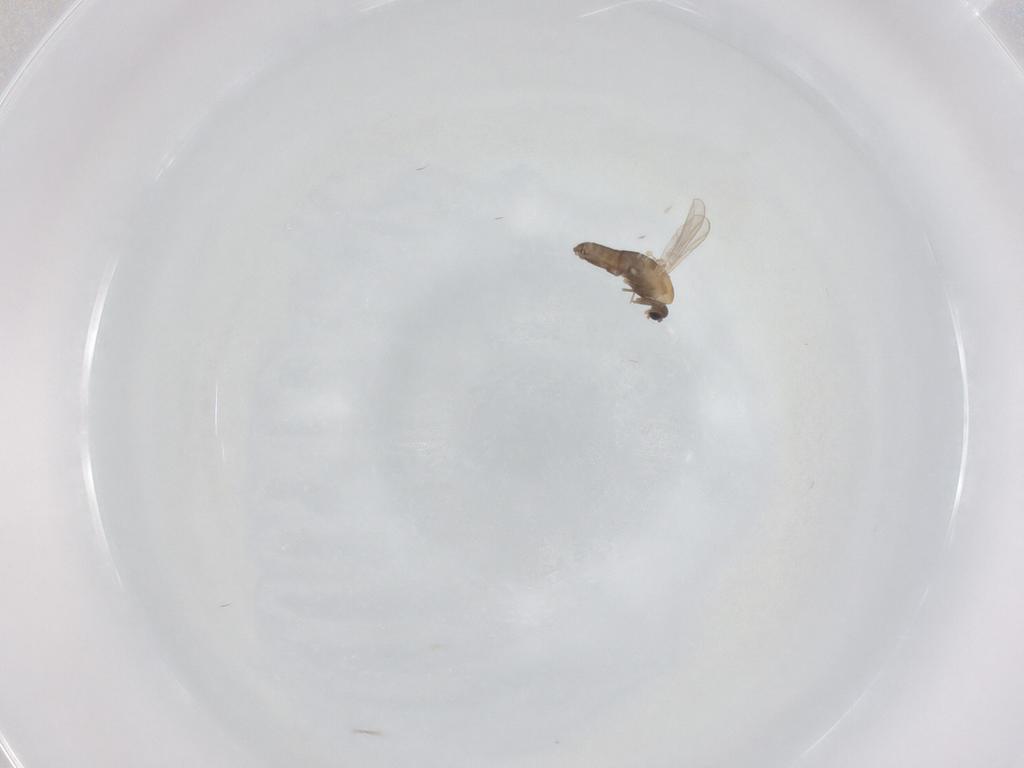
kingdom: Animalia
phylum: Arthropoda
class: Insecta
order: Diptera
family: Chironomidae
